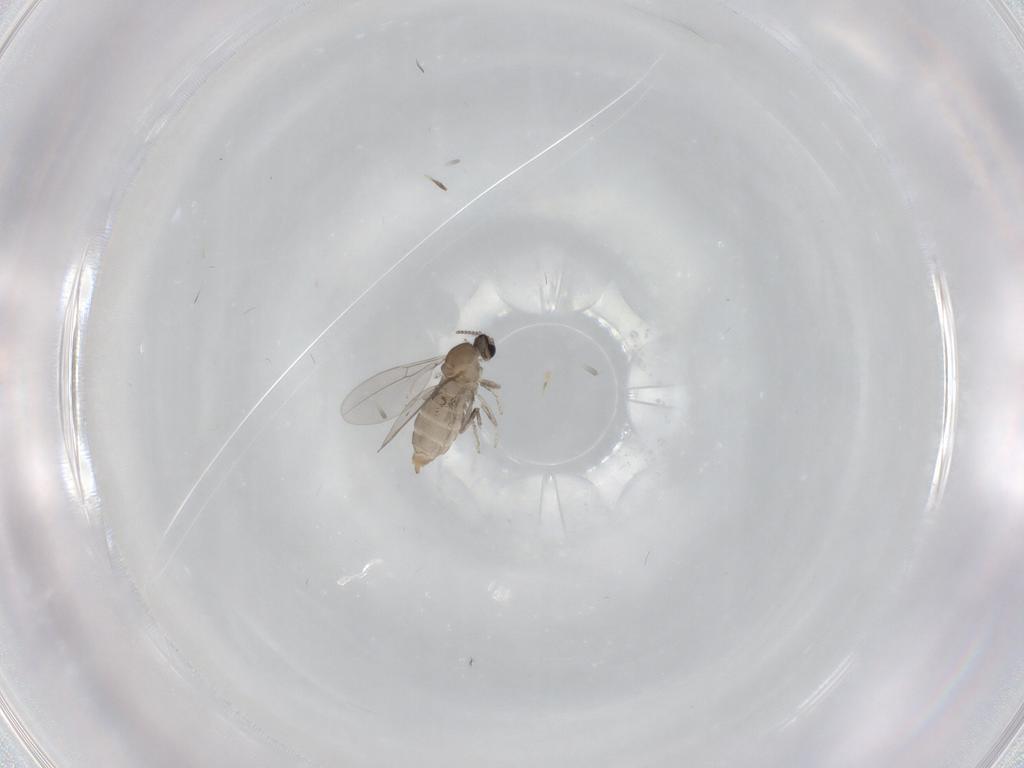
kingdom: Animalia
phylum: Arthropoda
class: Insecta
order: Diptera
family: Cecidomyiidae
